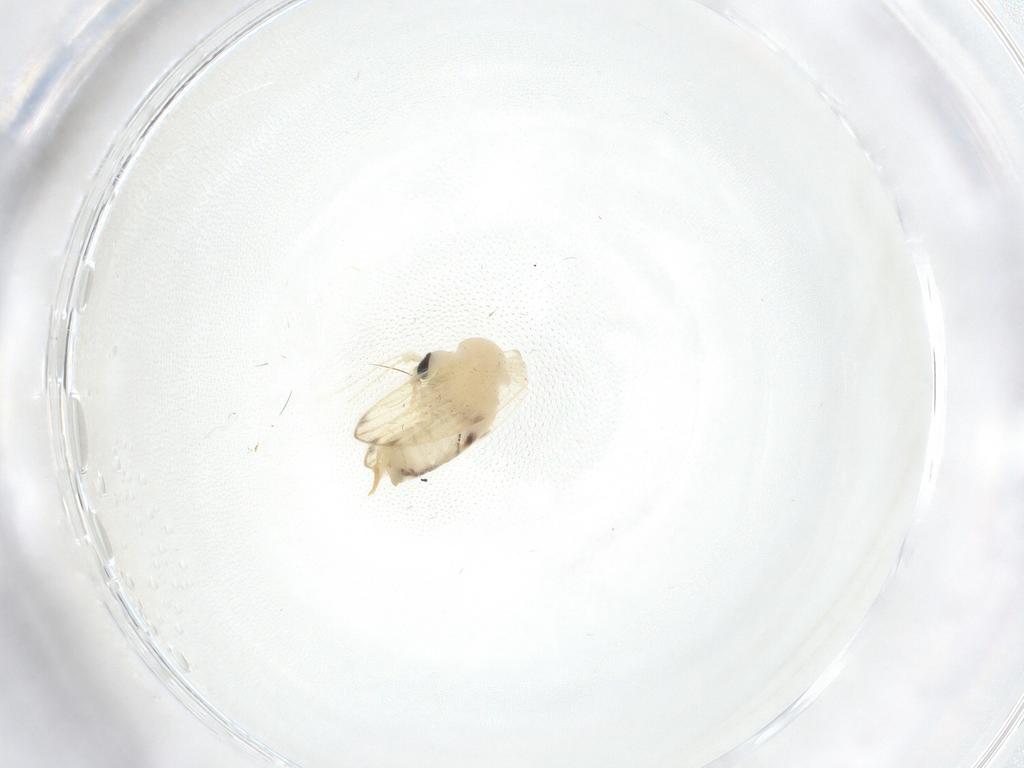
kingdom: Animalia
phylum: Arthropoda
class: Insecta
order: Diptera
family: Psychodidae
